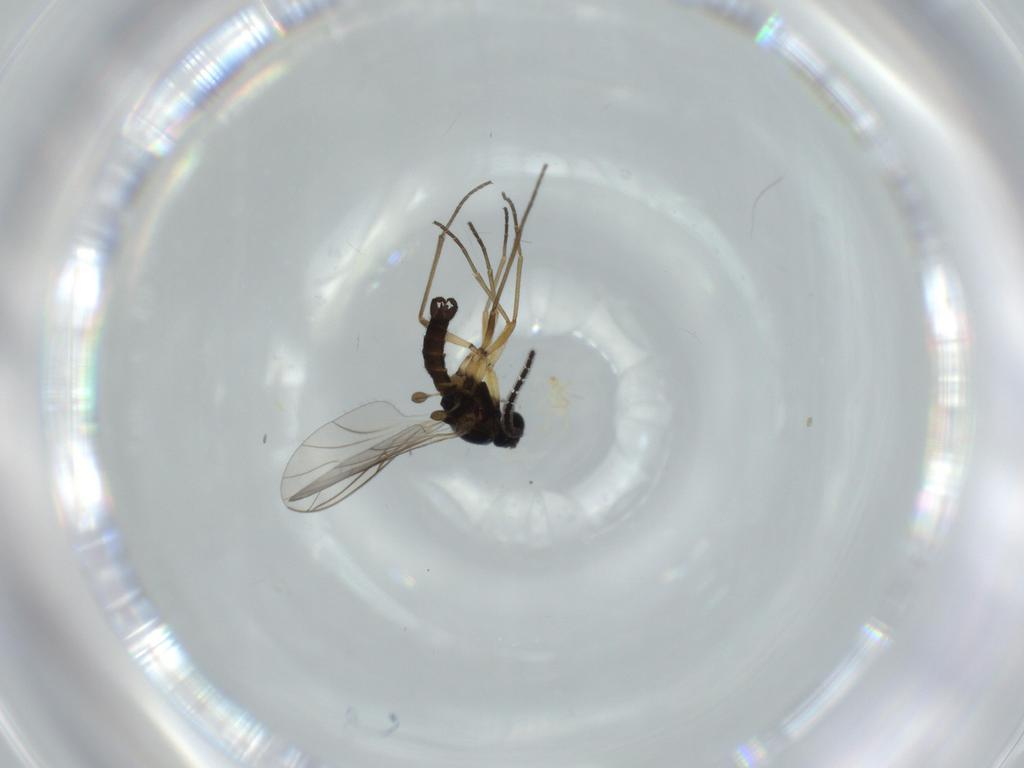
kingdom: Animalia
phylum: Arthropoda
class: Insecta
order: Diptera
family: Sciaridae
